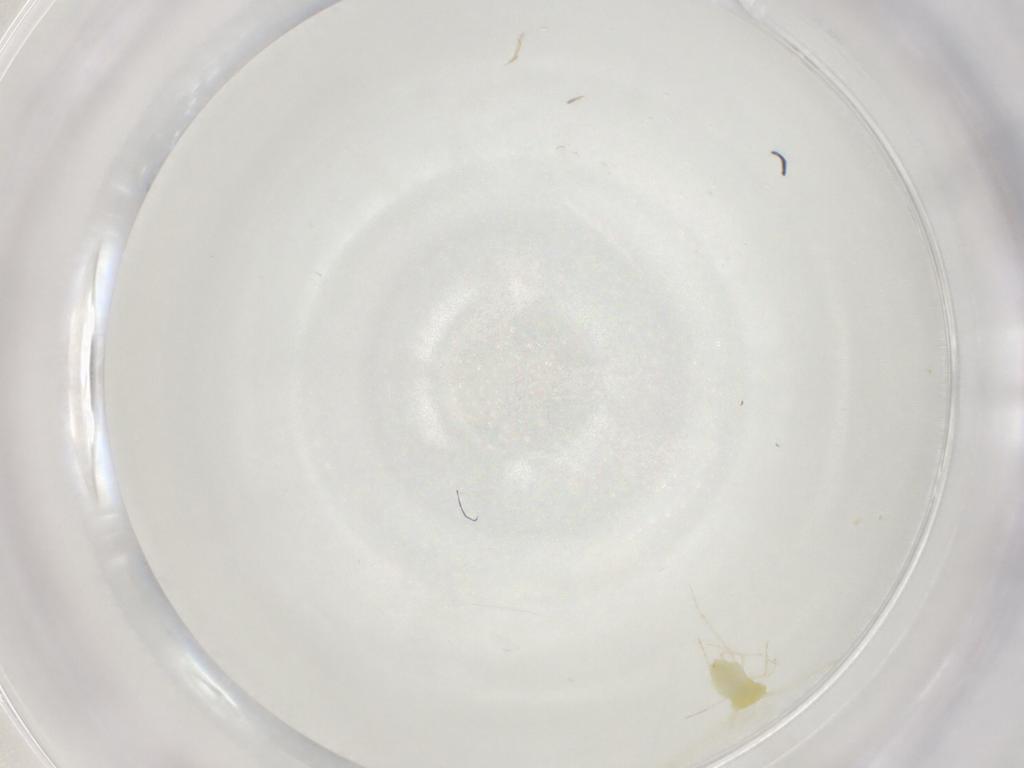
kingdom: Animalia
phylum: Arthropoda
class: Insecta
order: Hemiptera
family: Aleyrodidae
